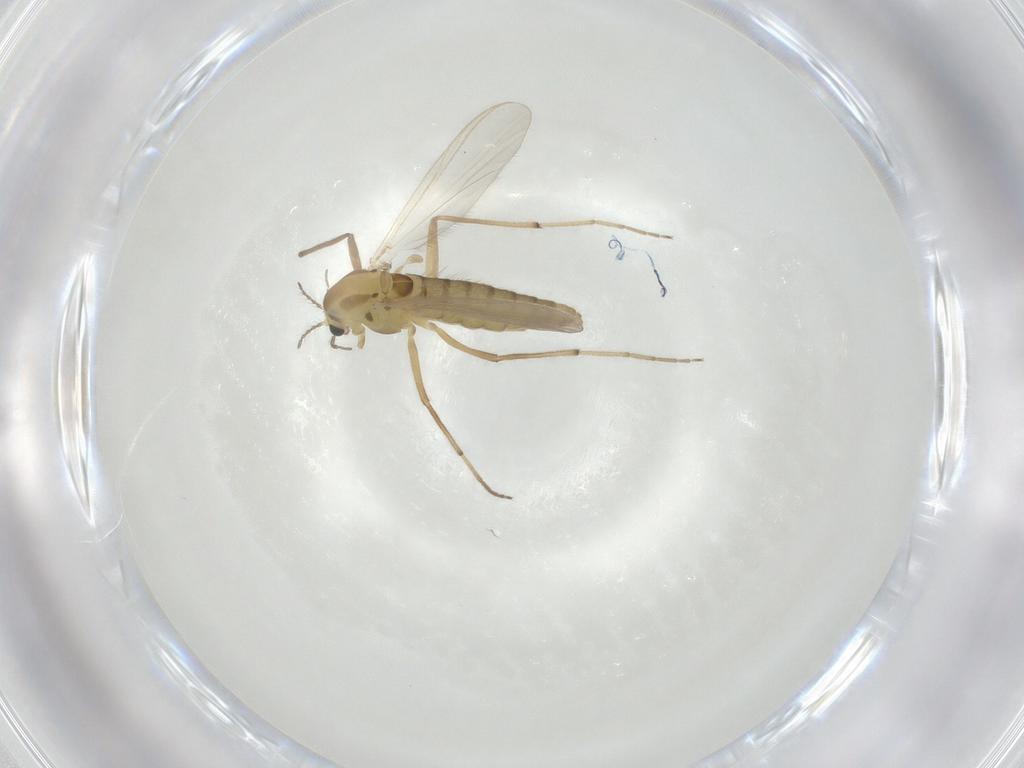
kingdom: Animalia
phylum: Arthropoda
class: Insecta
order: Diptera
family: Chironomidae
